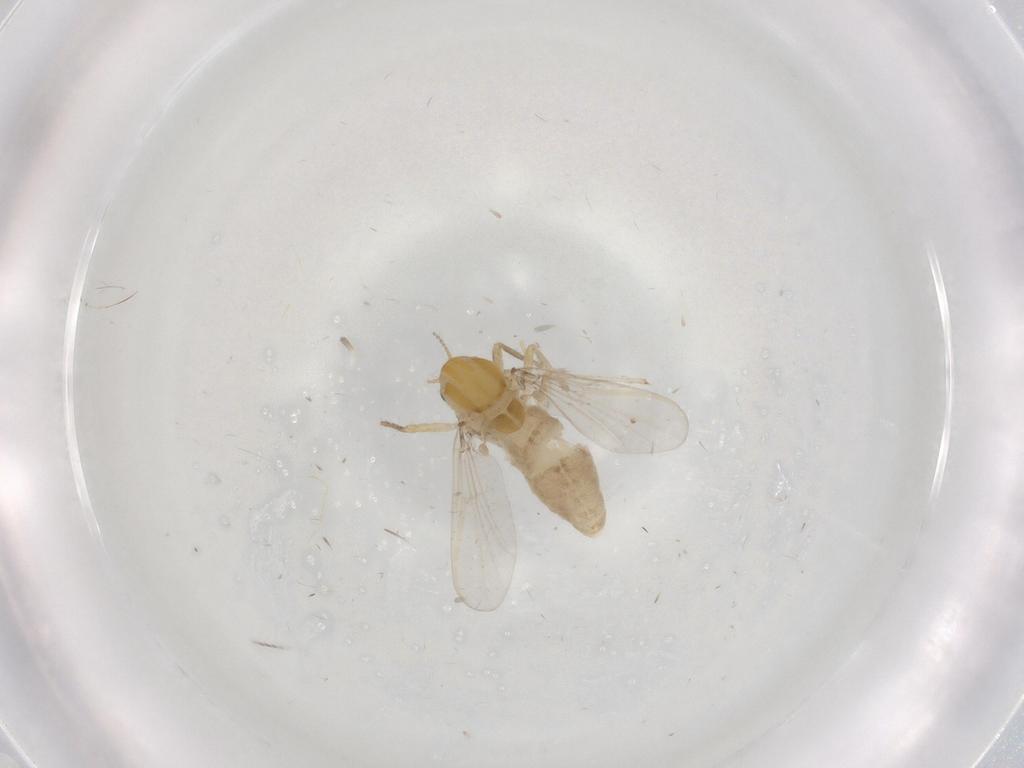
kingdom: Animalia
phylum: Arthropoda
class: Insecta
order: Diptera
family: Chironomidae
